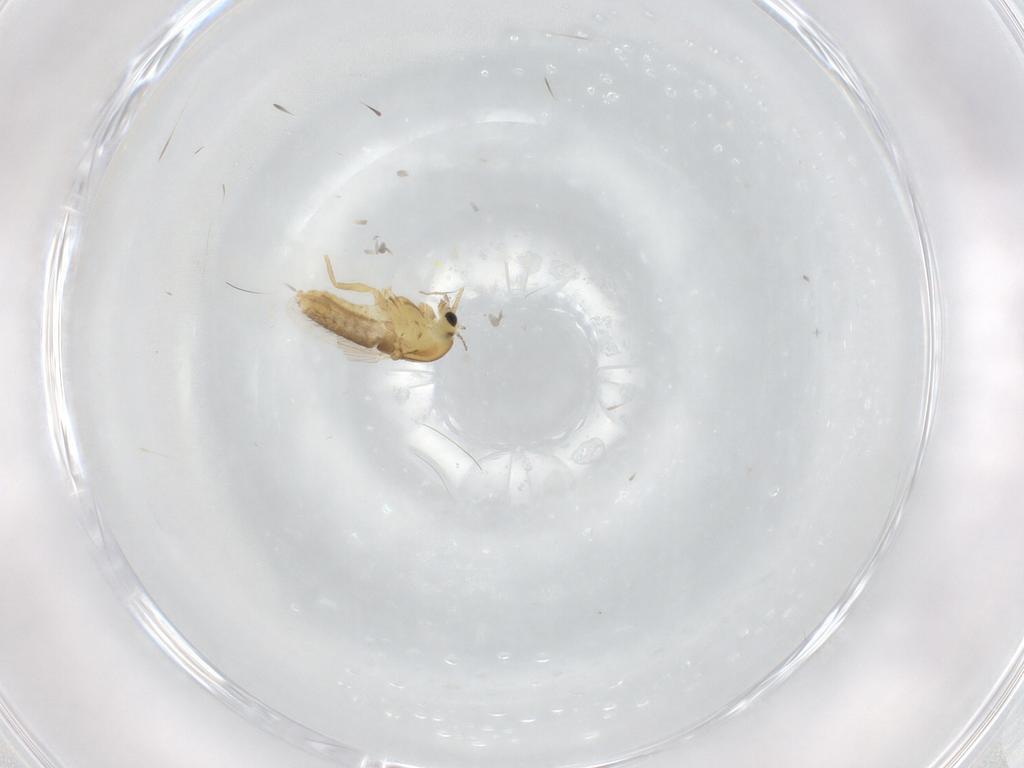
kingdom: Animalia
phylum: Arthropoda
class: Insecta
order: Diptera
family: Chironomidae
